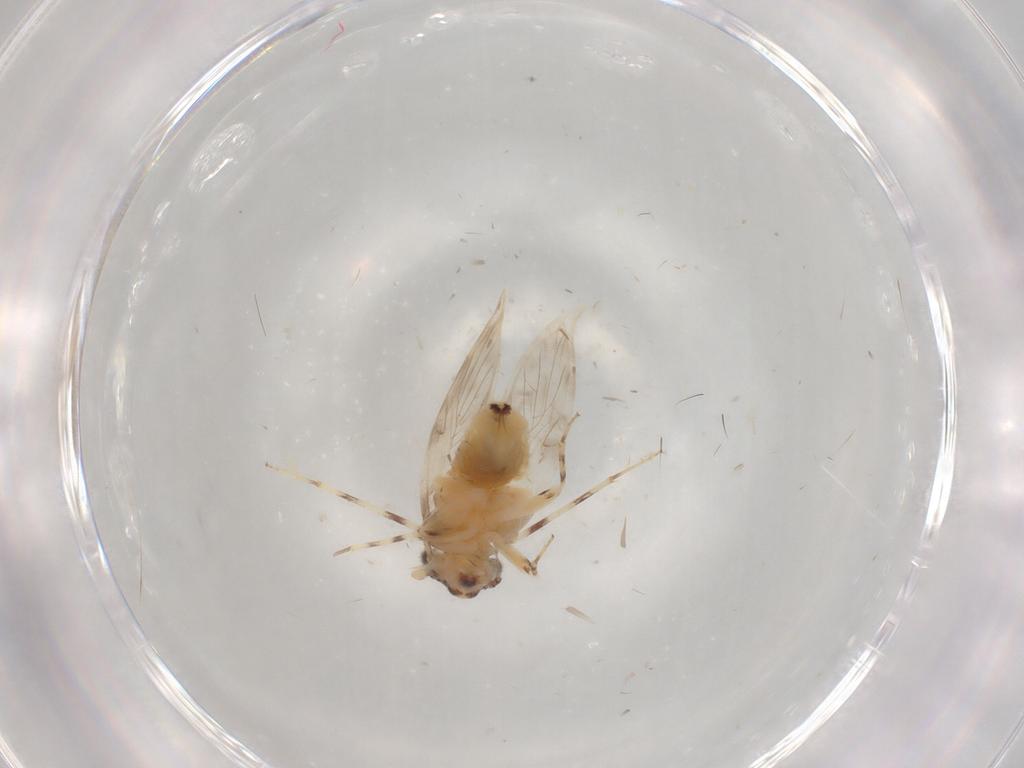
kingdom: Animalia
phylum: Arthropoda
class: Insecta
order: Psocodea
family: Lepidopsocidae
